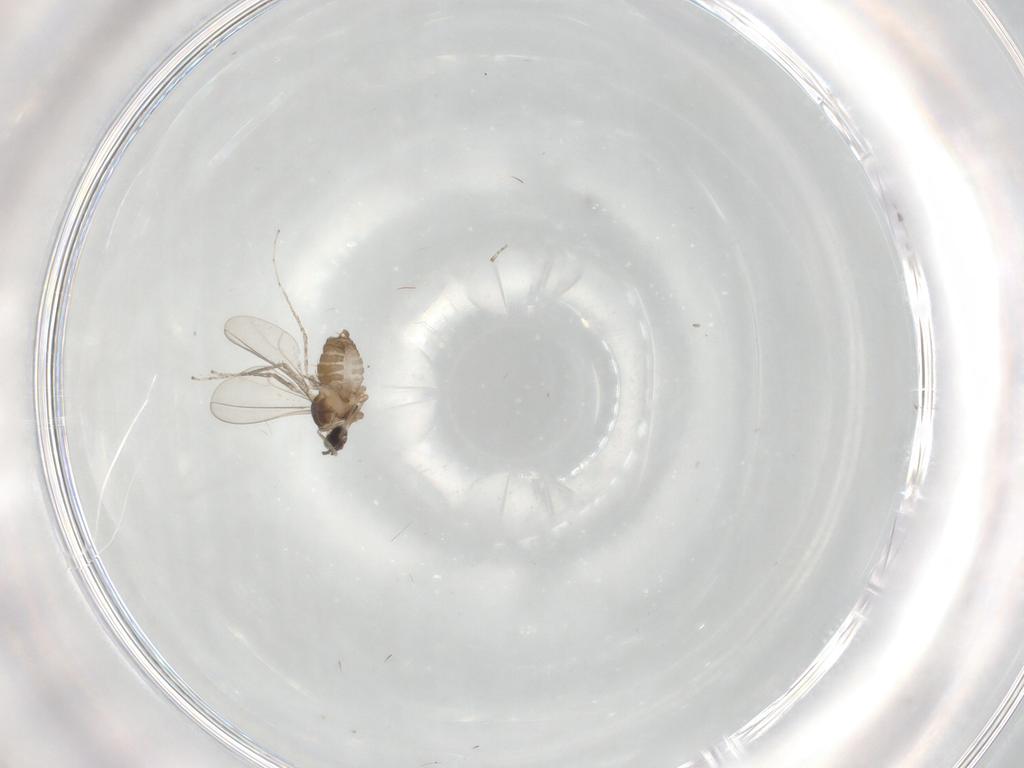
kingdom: Animalia
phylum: Arthropoda
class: Insecta
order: Diptera
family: Cecidomyiidae
